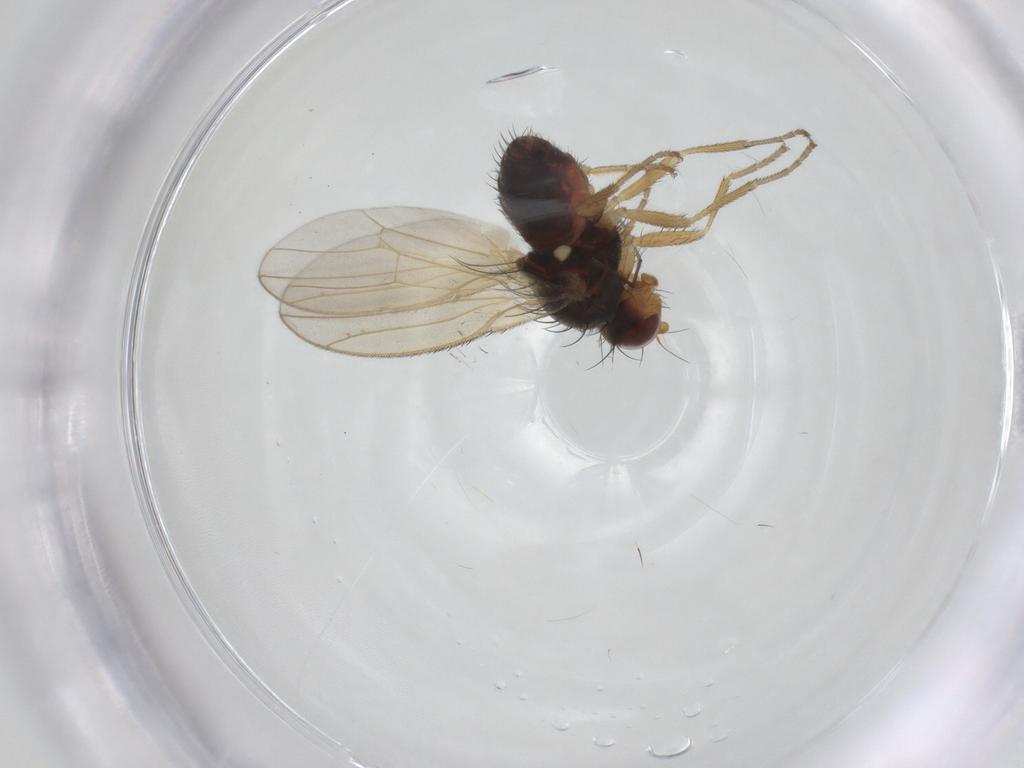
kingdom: Animalia
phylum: Arthropoda
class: Insecta
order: Diptera
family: Heleomyzidae
